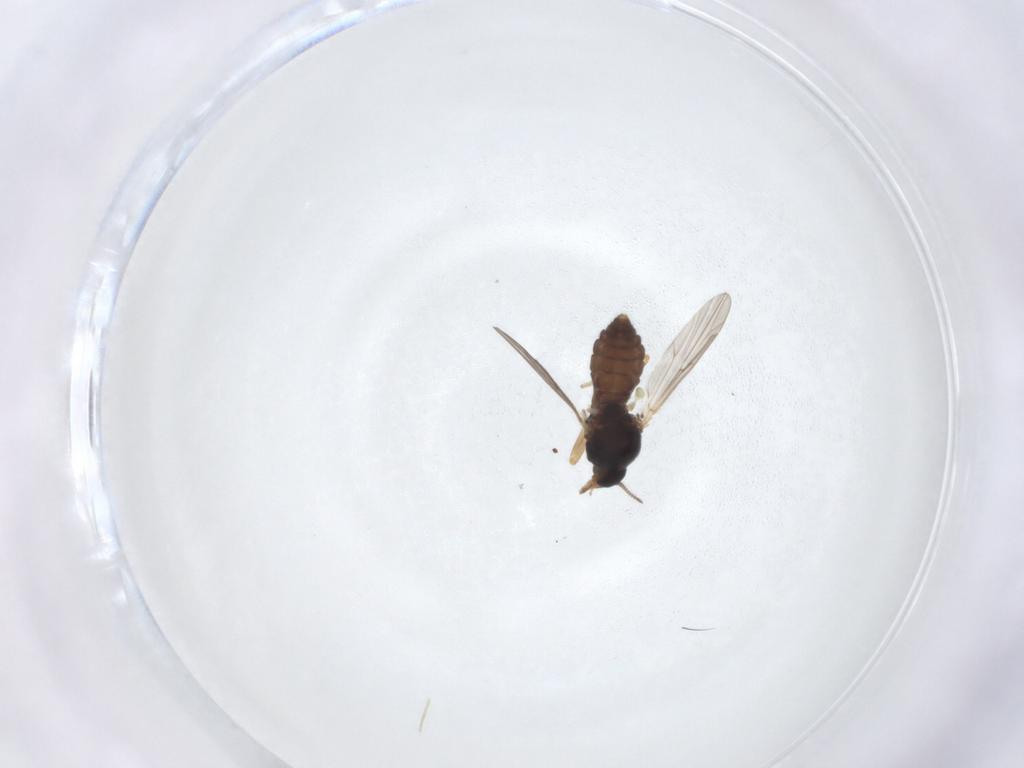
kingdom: Animalia
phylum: Arthropoda
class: Insecta
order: Diptera
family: Ceratopogonidae
